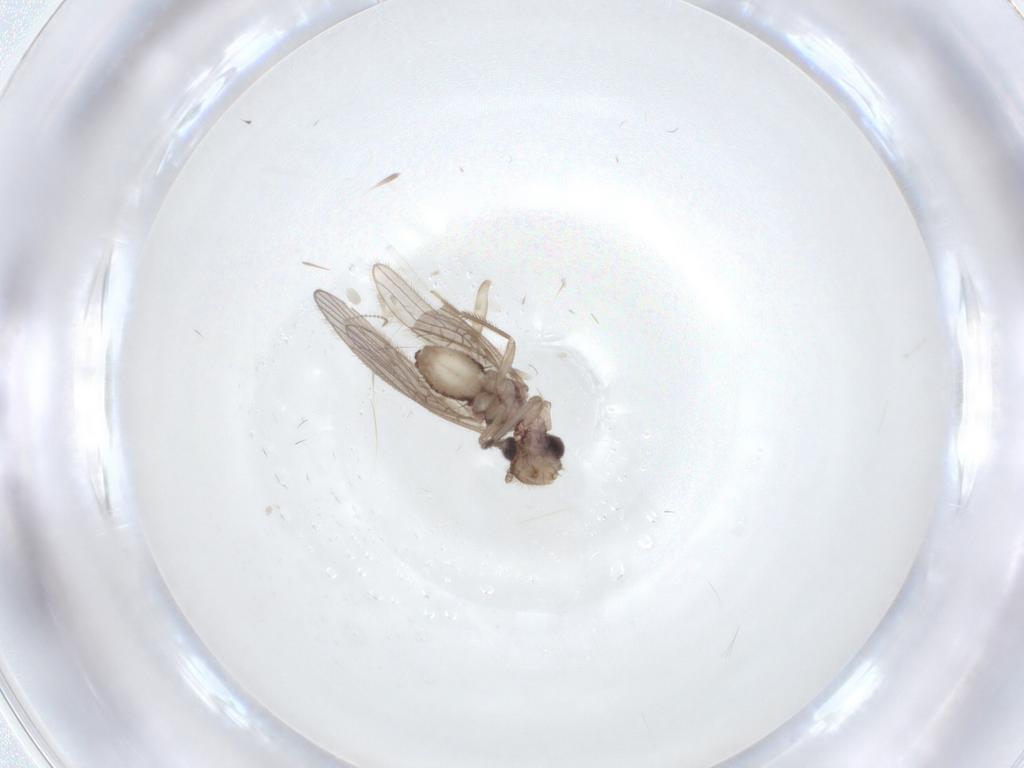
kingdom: Animalia
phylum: Arthropoda
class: Insecta
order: Psocodea
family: Cladiopsocidae
